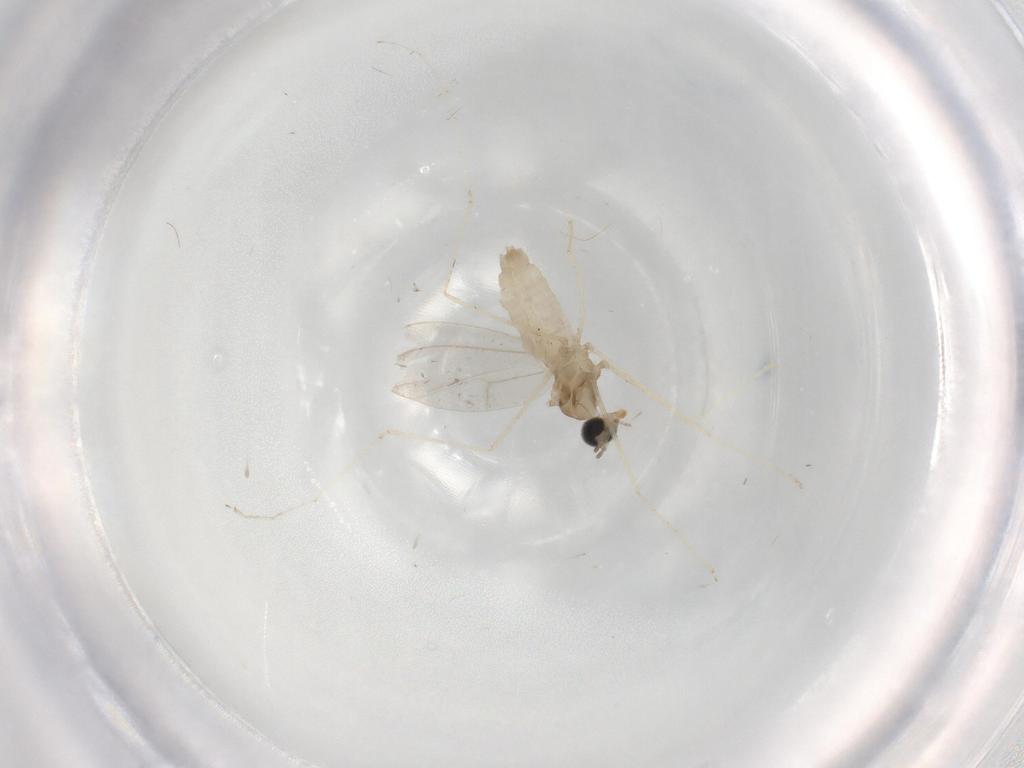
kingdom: Animalia
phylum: Arthropoda
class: Insecta
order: Diptera
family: Cecidomyiidae
